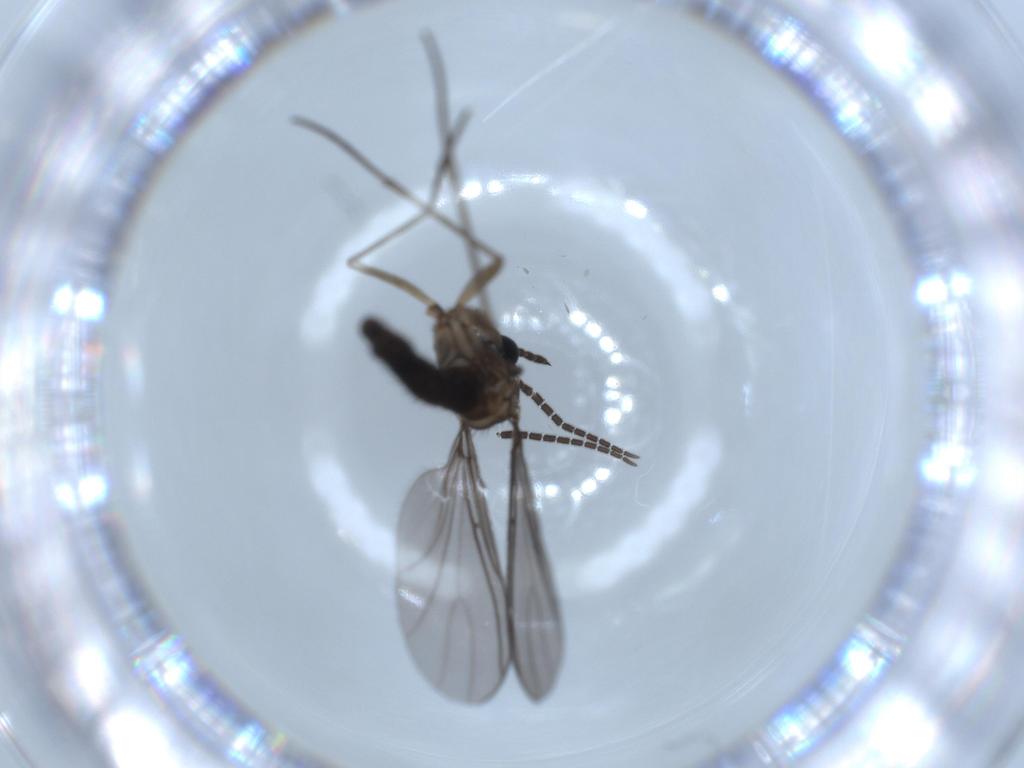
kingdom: Animalia
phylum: Arthropoda
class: Insecta
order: Diptera
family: Sciaridae
